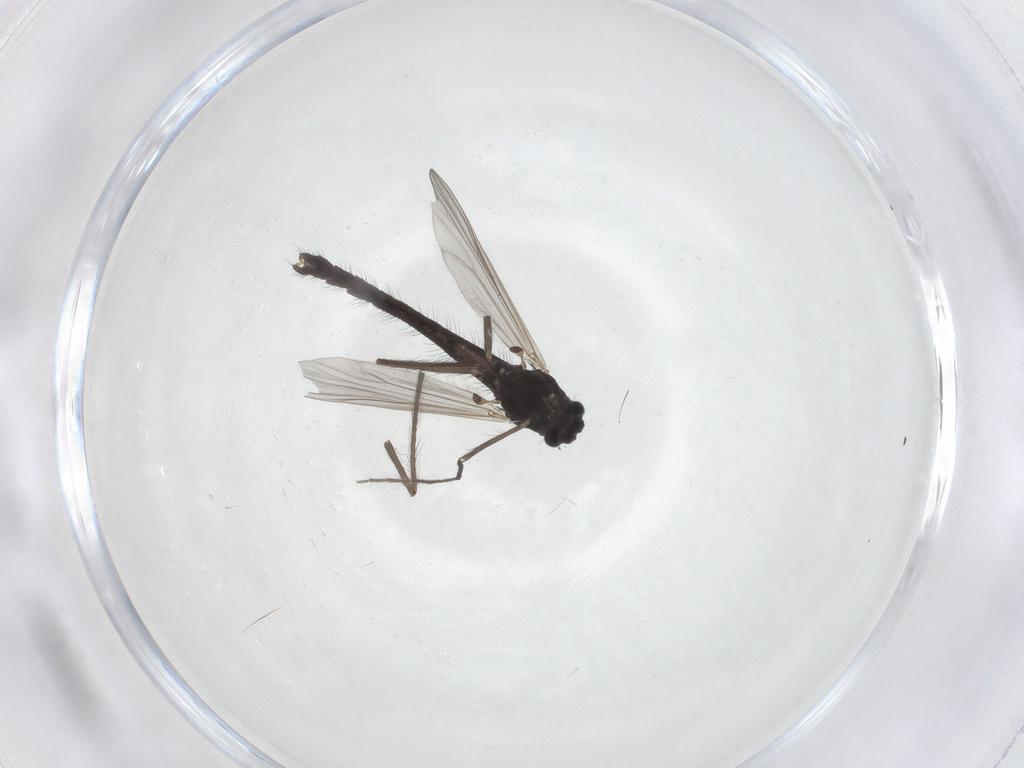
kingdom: Animalia
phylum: Arthropoda
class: Insecta
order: Diptera
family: Chironomidae
